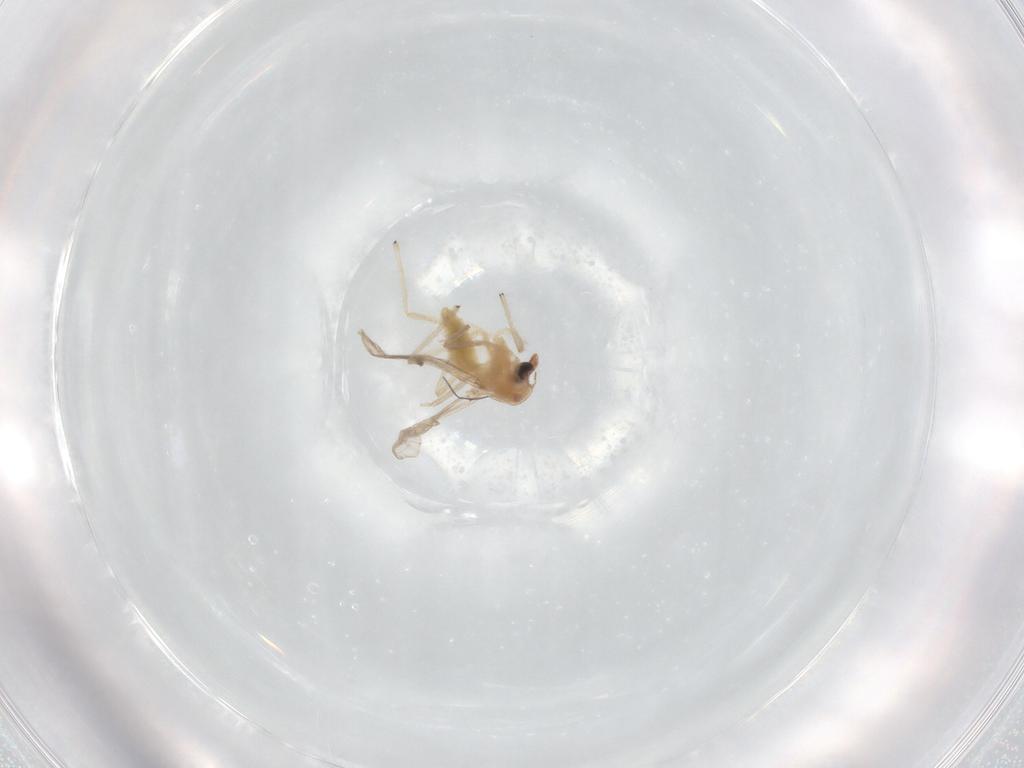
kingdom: Animalia
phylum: Arthropoda
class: Insecta
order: Diptera
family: Chironomidae
